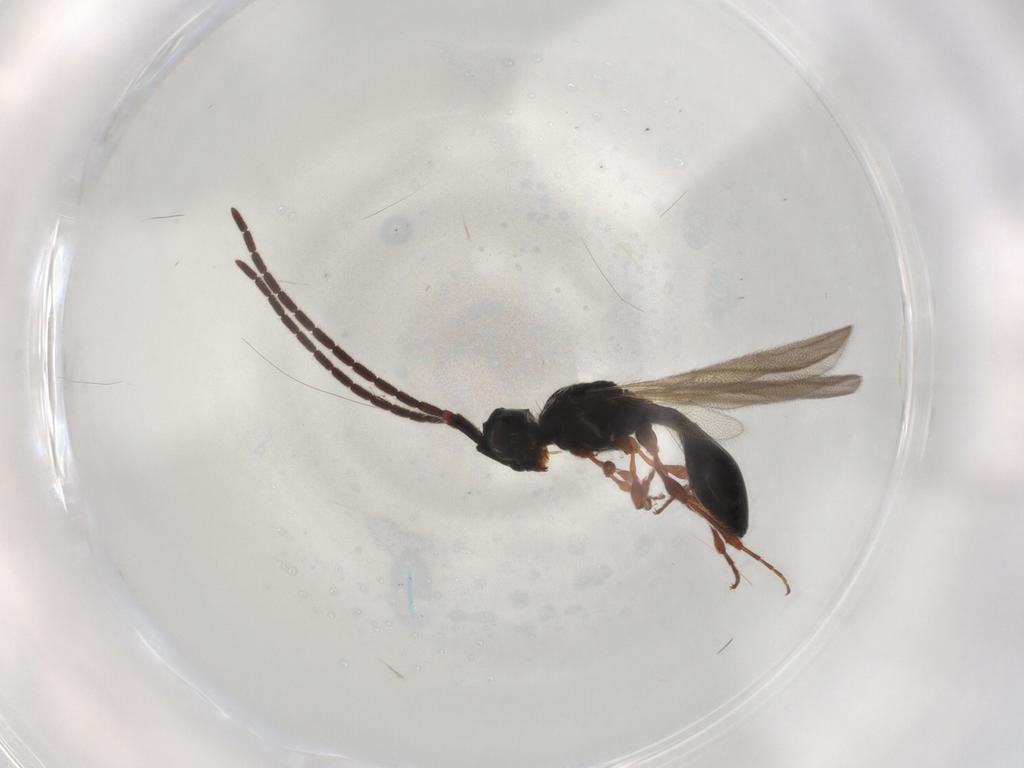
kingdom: Animalia
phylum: Arthropoda
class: Insecta
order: Hymenoptera
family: Diapriidae
